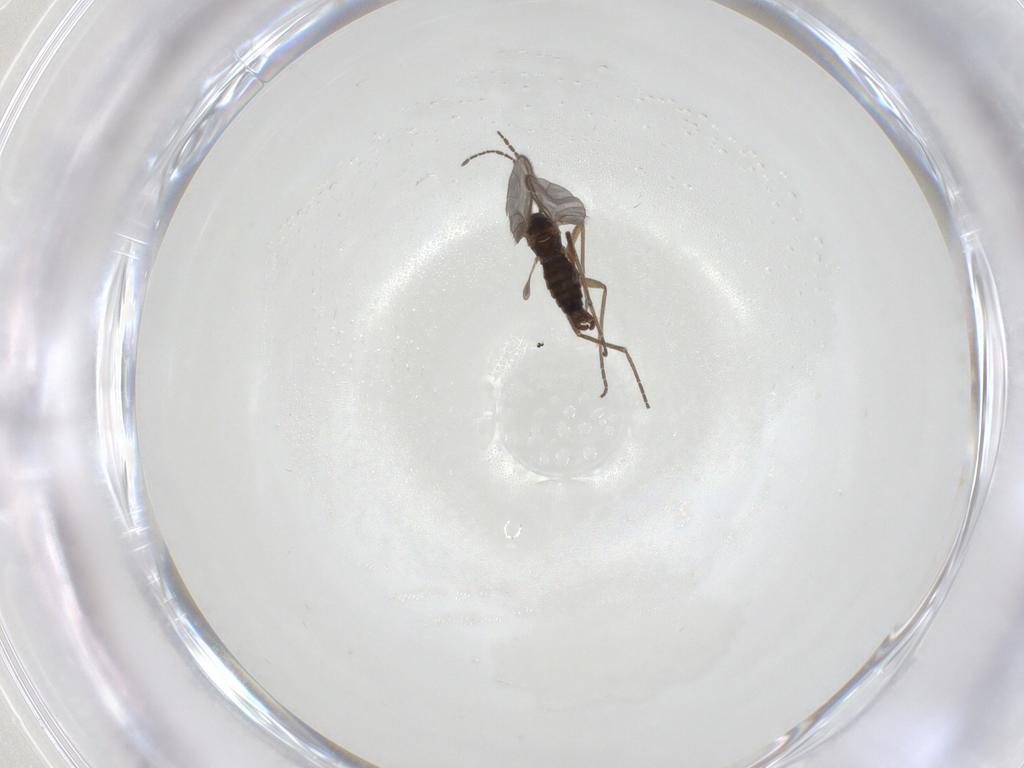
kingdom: Animalia
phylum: Arthropoda
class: Insecta
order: Diptera
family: Sciaridae
